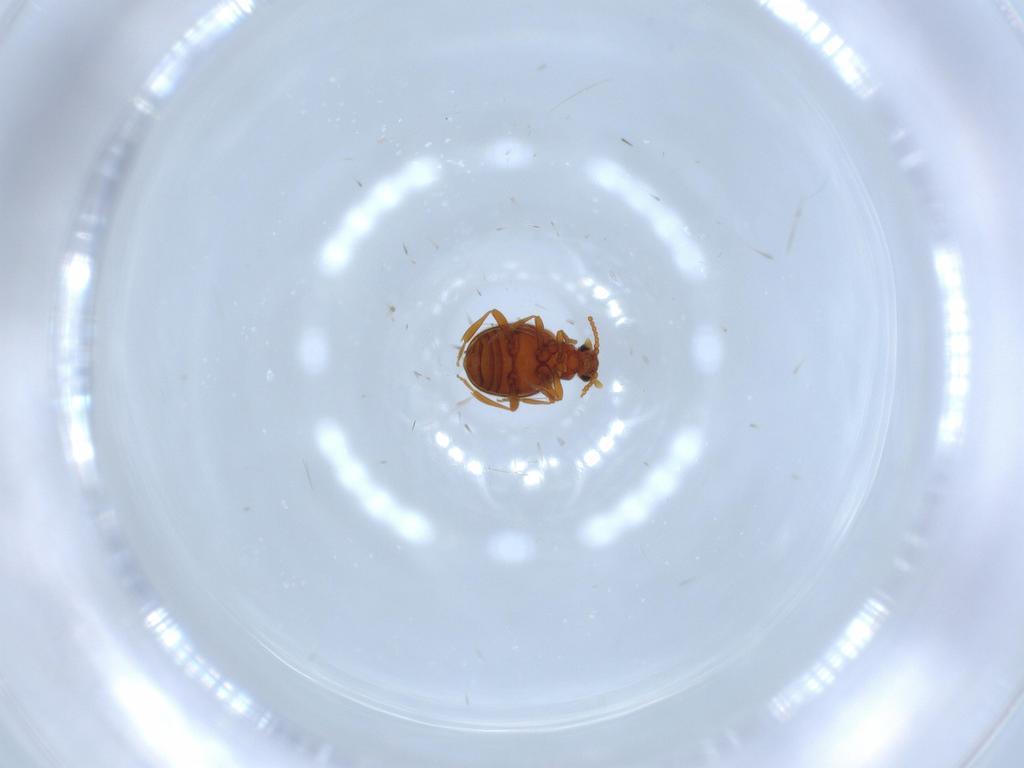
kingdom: Animalia
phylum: Arthropoda
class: Insecta
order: Coleoptera
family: Aderidae
